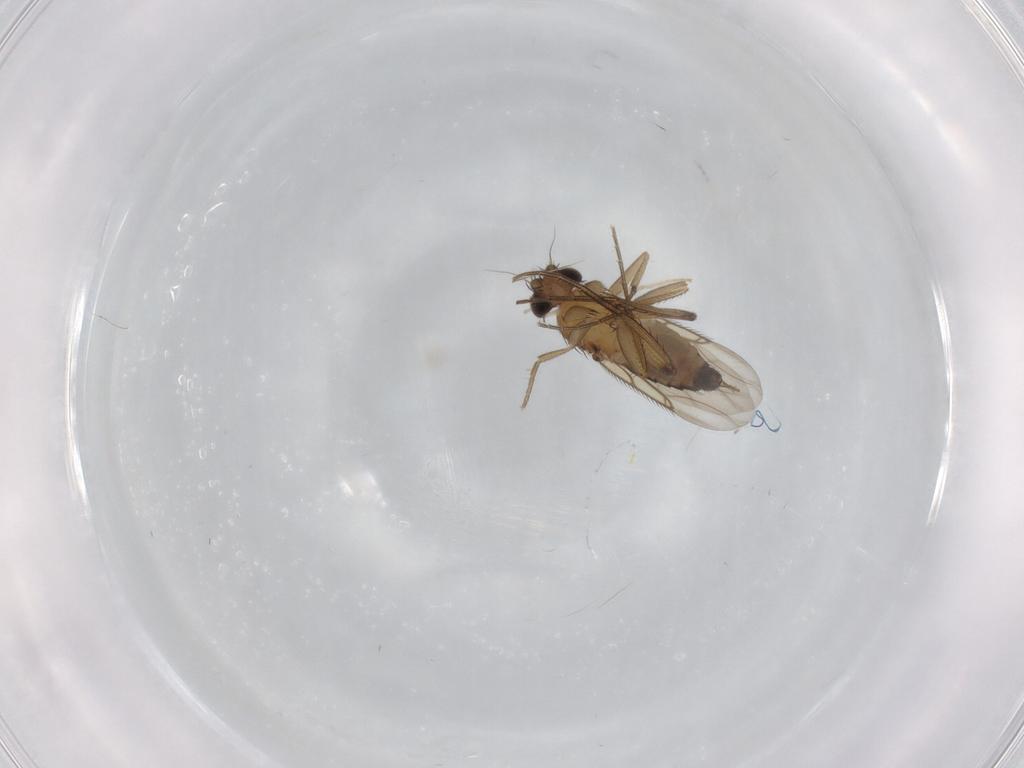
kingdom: Animalia
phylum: Arthropoda
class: Insecta
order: Diptera
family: Phoridae
